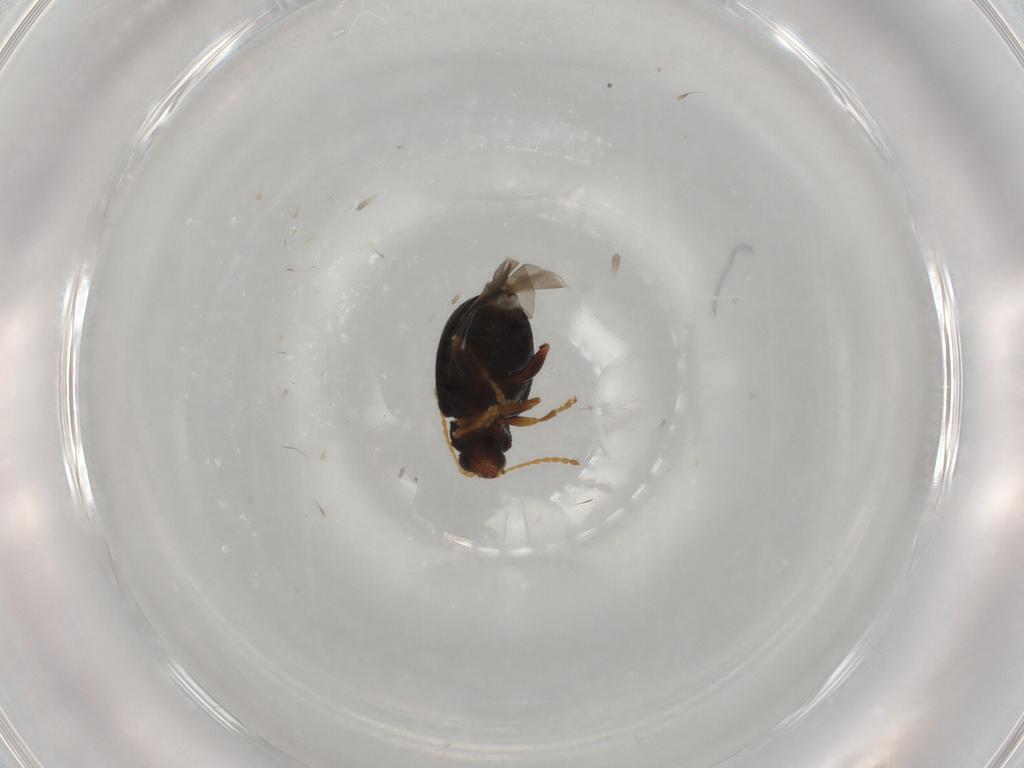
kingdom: Animalia
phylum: Arthropoda
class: Insecta
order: Coleoptera
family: Chrysomelidae
